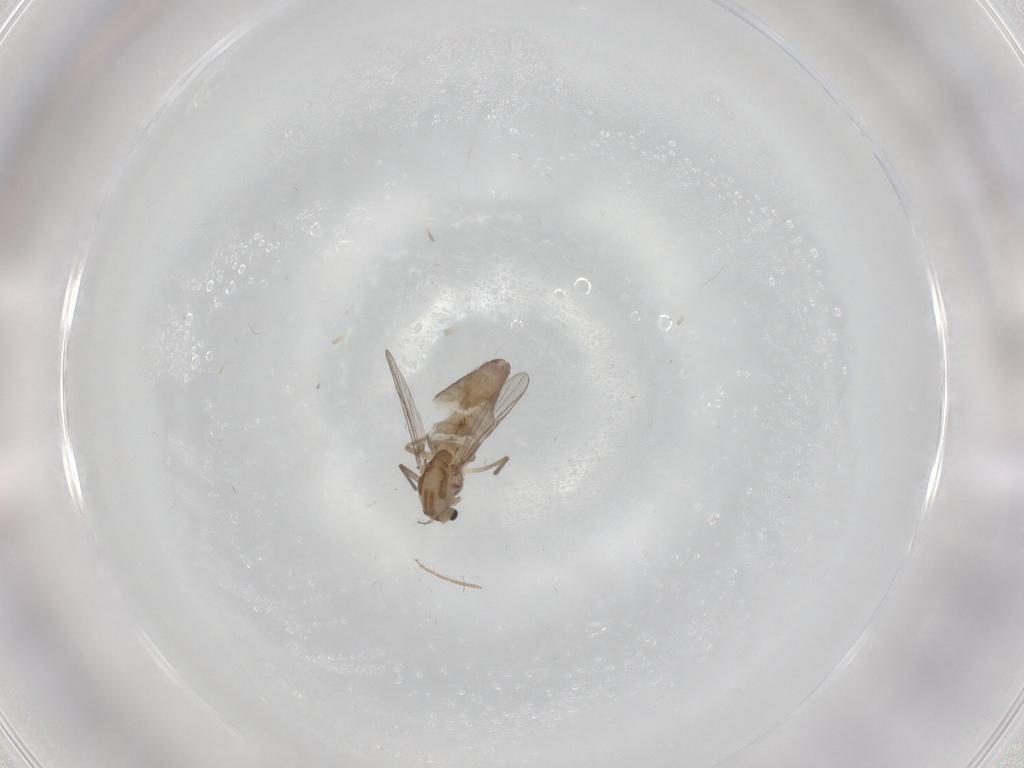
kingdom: Animalia
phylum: Arthropoda
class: Insecta
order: Diptera
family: Chironomidae
